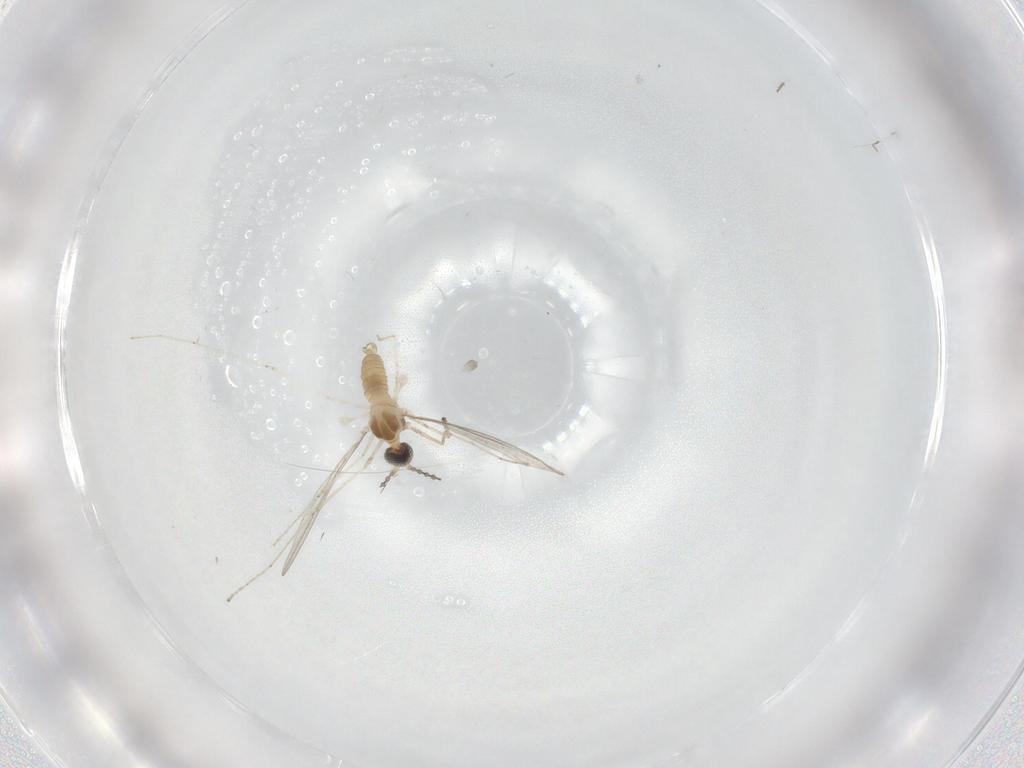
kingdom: Animalia
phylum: Arthropoda
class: Insecta
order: Diptera
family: Cecidomyiidae
